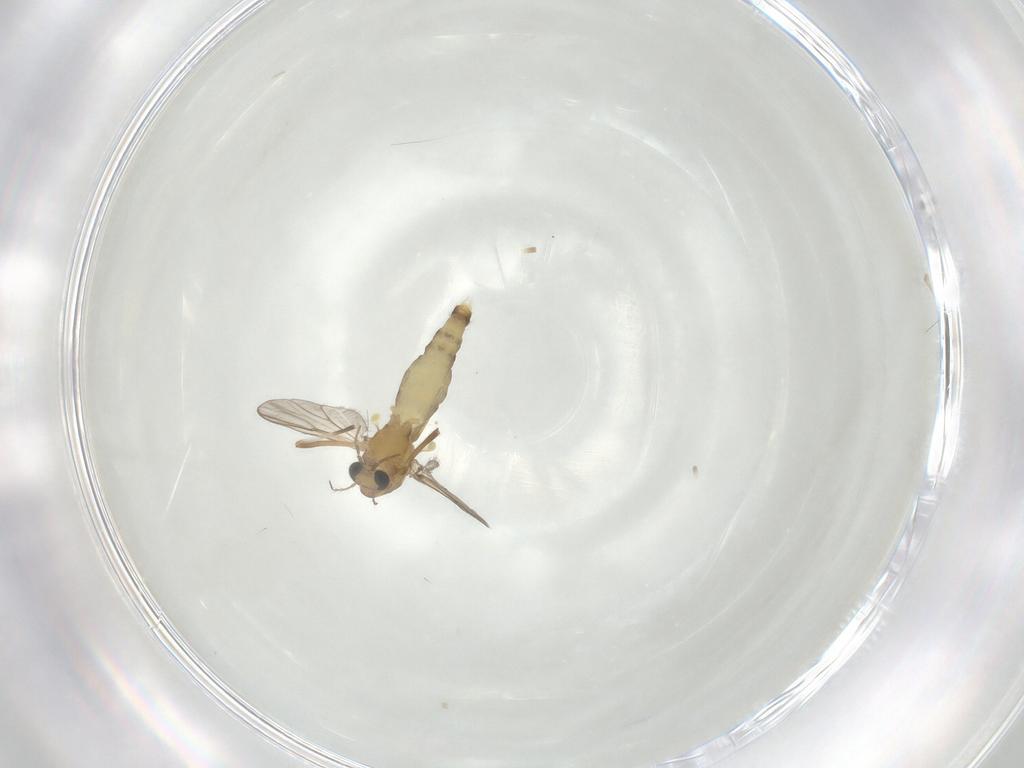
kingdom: Animalia
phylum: Arthropoda
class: Insecta
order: Diptera
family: Chironomidae
